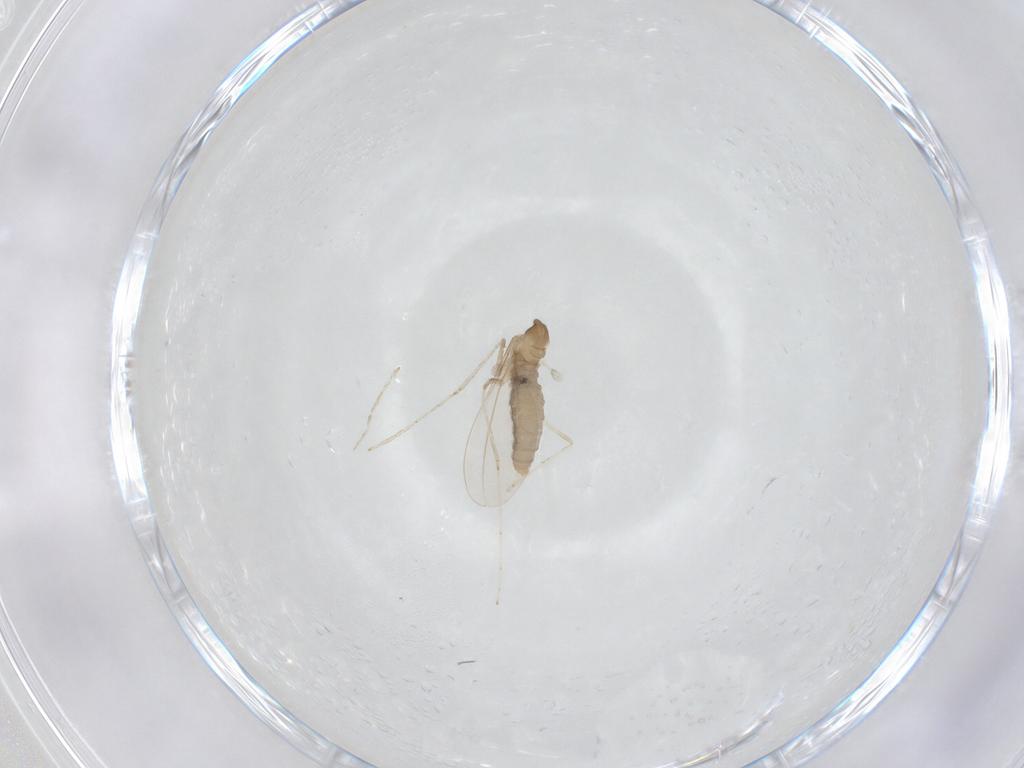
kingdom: Animalia
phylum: Arthropoda
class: Insecta
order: Diptera
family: Cecidomyiidae
